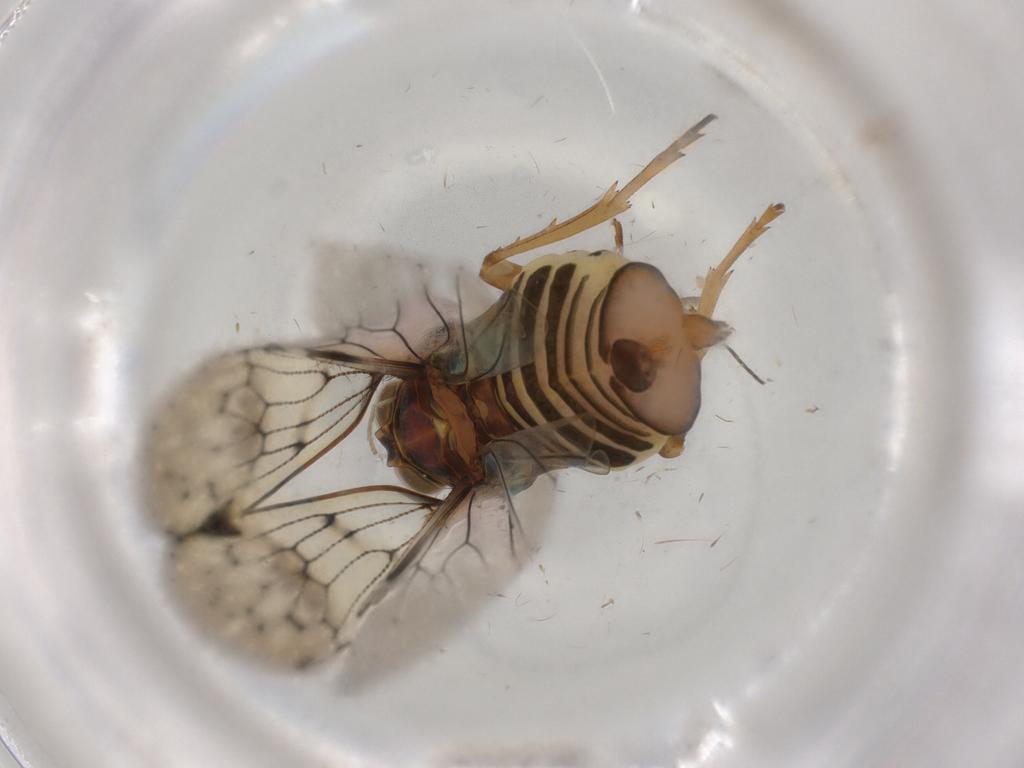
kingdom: Animalia
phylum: Arthropoda
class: Insecta
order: Hemiptera
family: Cixiidae
